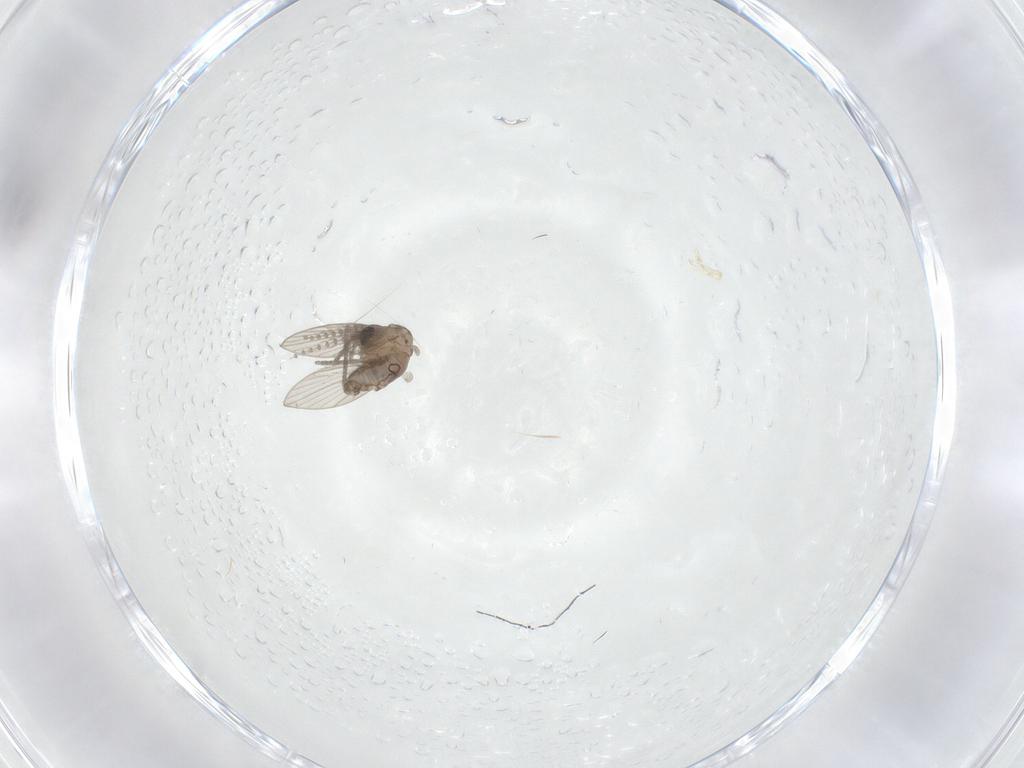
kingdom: Animalia
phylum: Arthropoda
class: Insecta
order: Diptera
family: Psychodidae
